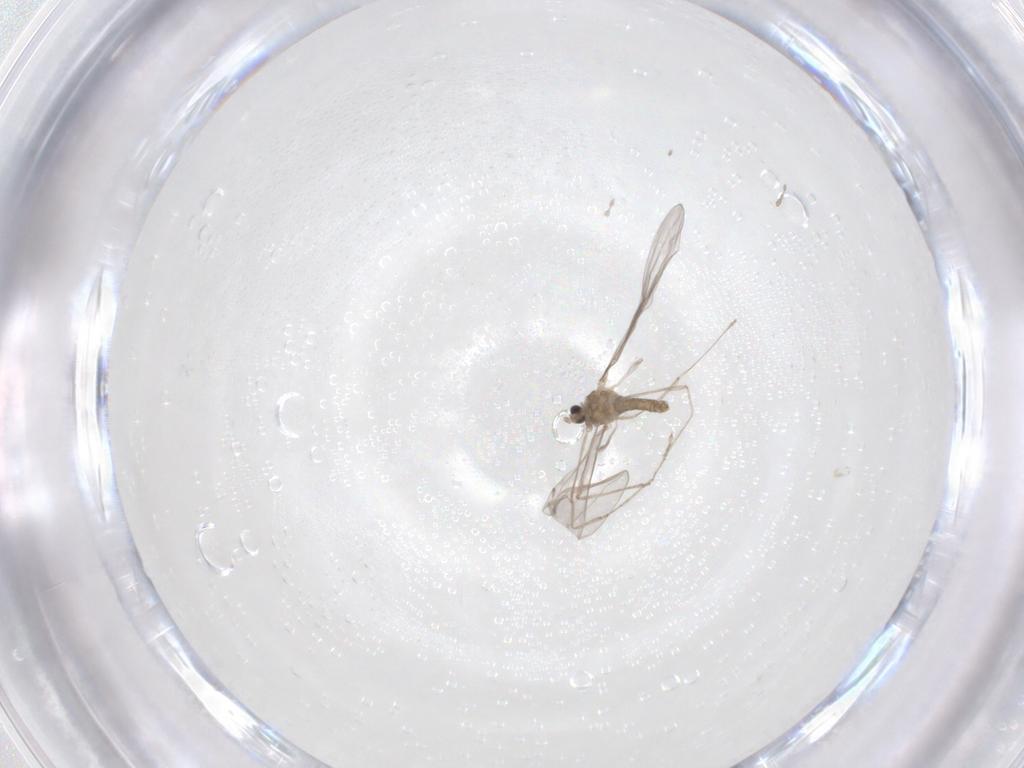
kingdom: Animalia
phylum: Arthropoda
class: Insecta
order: Diptera
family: Cecidomyiidae
